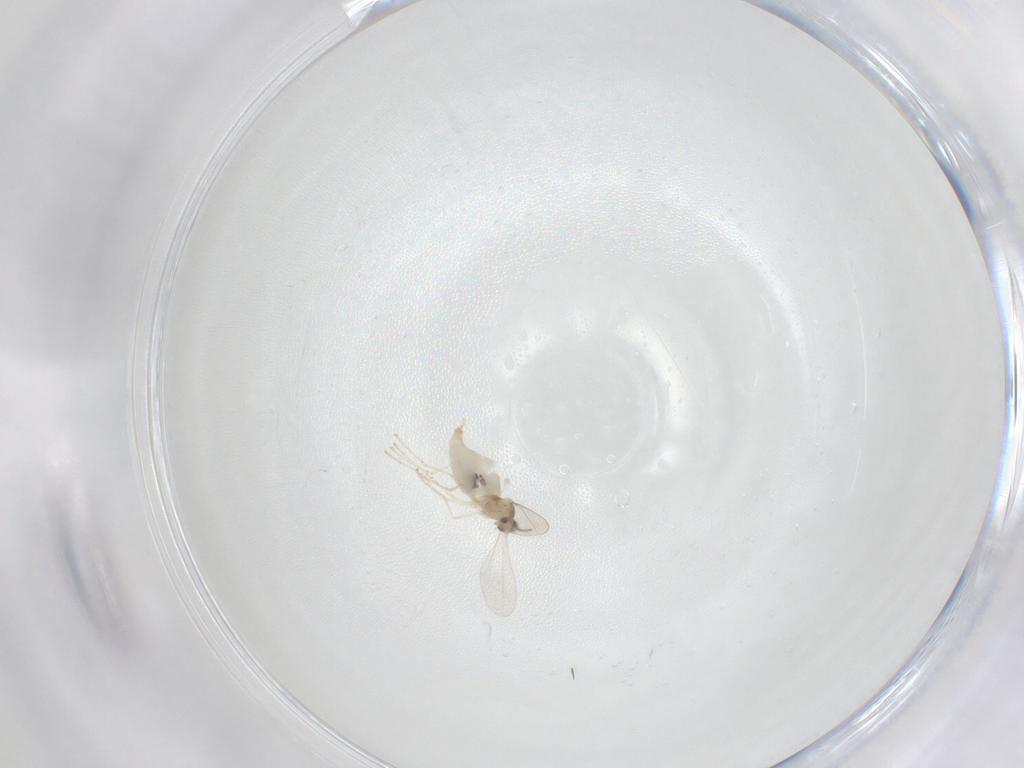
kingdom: Animalia
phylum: Arthropoda
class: Insecta
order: Diptera
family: Cecidomyiidae
